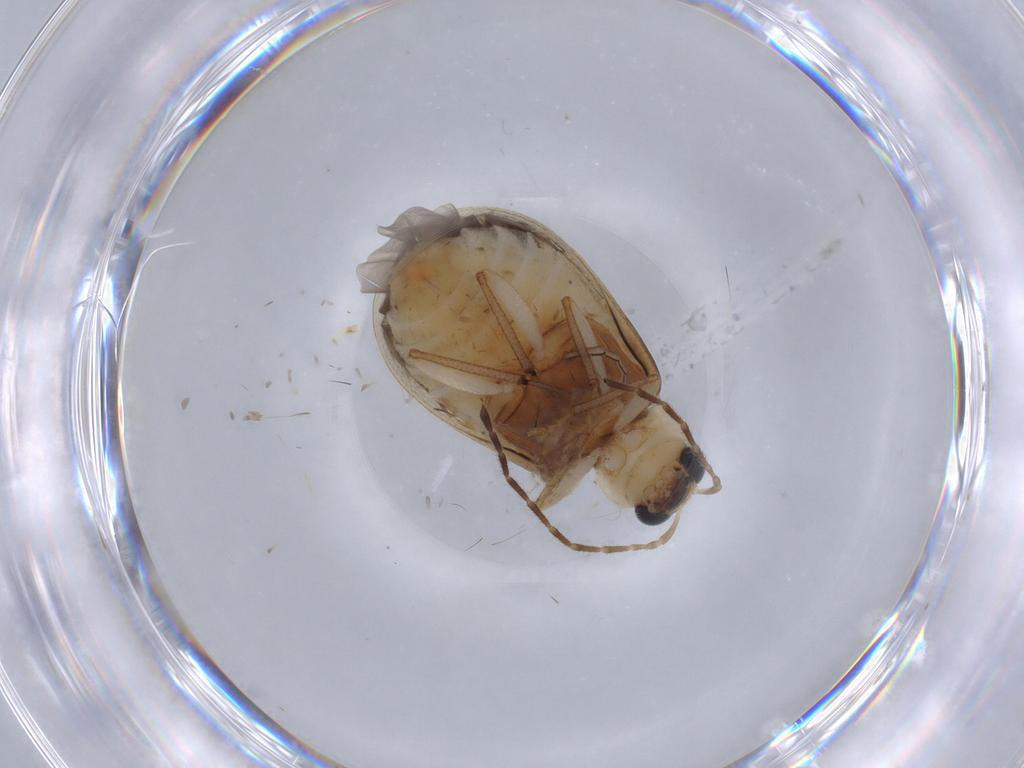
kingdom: Animalia
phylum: Arthropoda
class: Insecta
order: Coleoptera
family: Chrysomelidae
